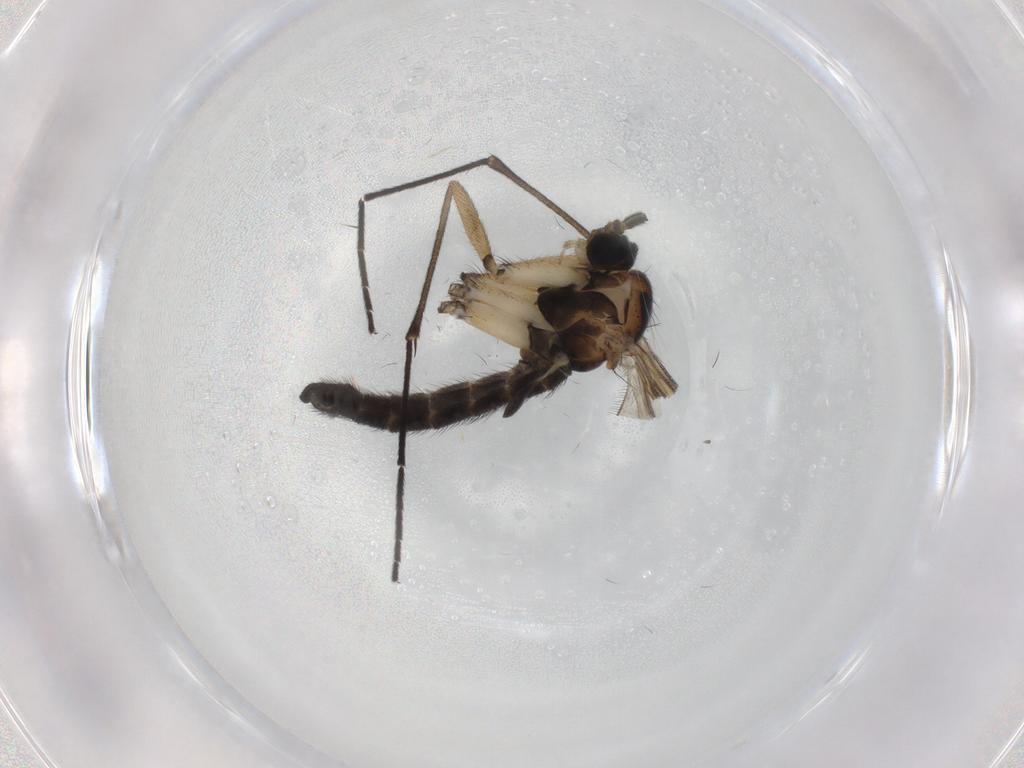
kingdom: Animalia
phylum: Arthropoda
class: Insecta
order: Diptera
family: Sciaridae
